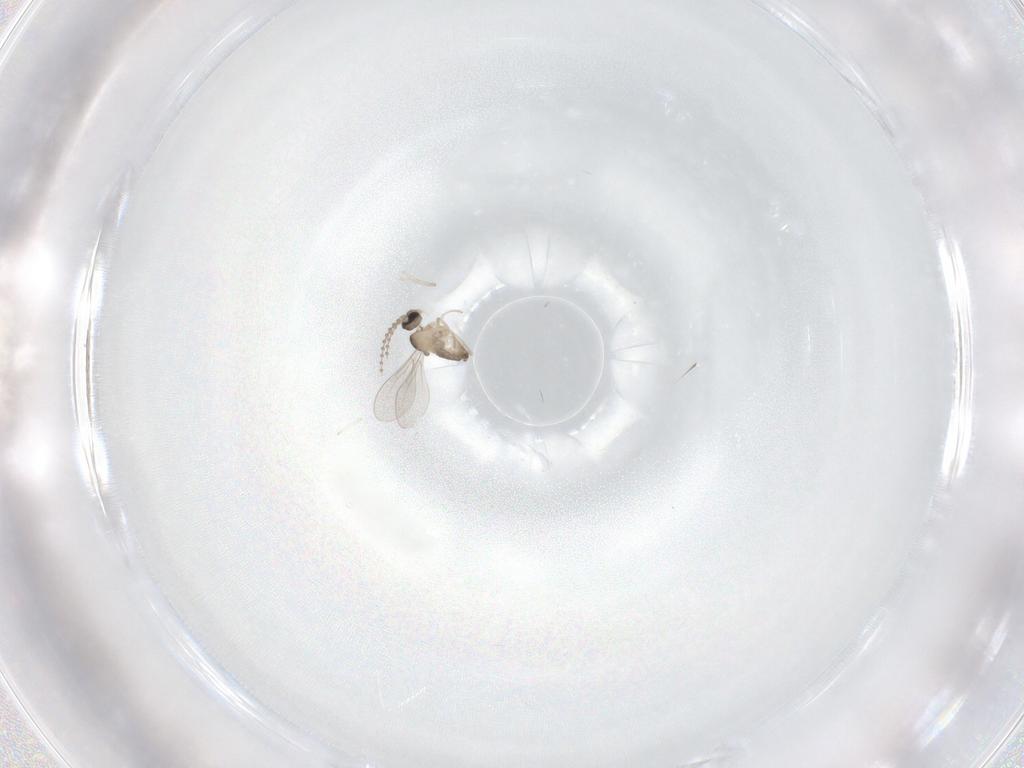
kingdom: Animalia
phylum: Arthropoda
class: Insecta
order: Diptera
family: Cecidomyiidae
